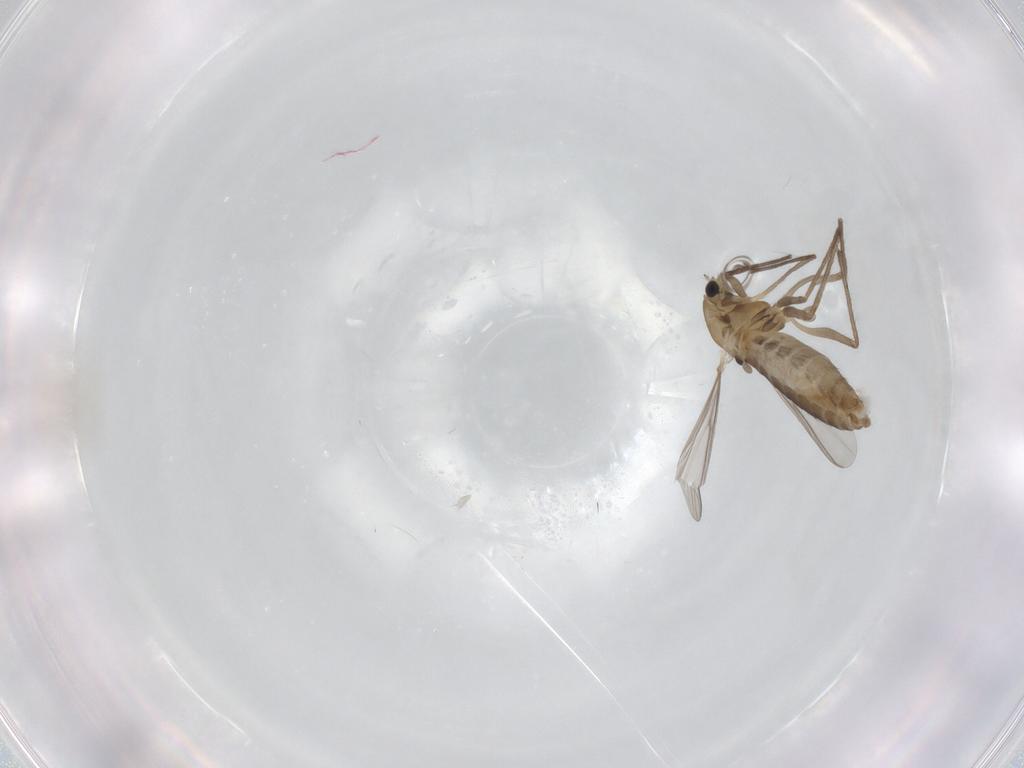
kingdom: Animalia
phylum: Arthropoda
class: Insecta
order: Diptera
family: Chironomidae
